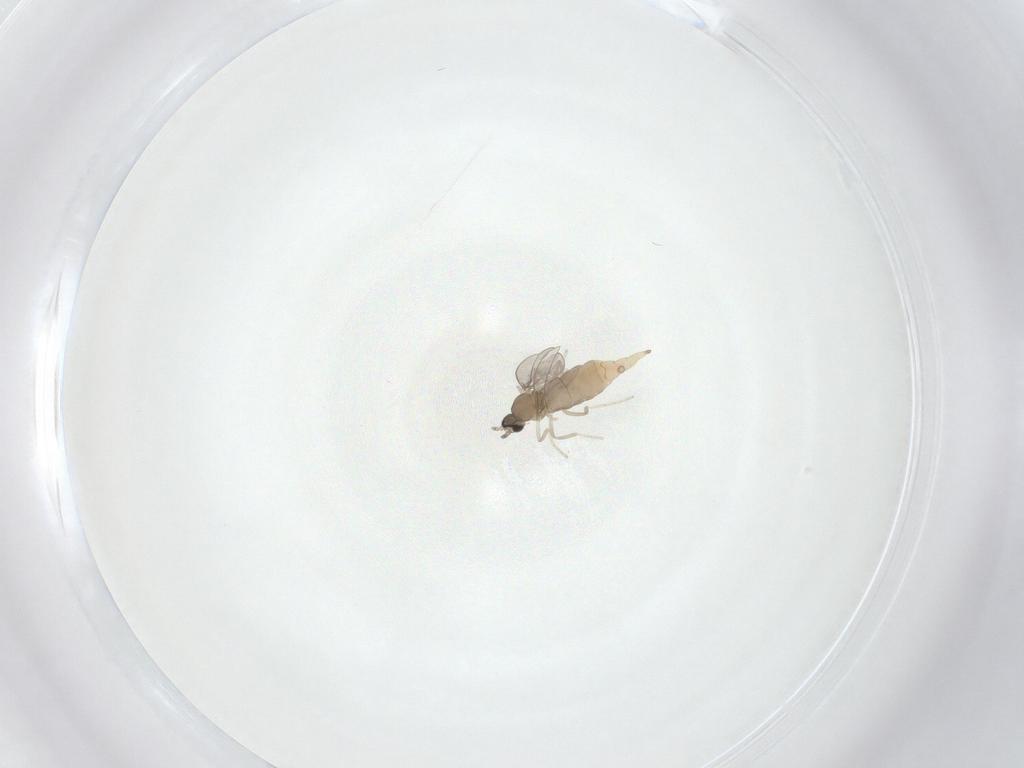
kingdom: Animalia
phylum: Arthropoda
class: Insecta
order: Diptera
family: Cecidomyiidae
